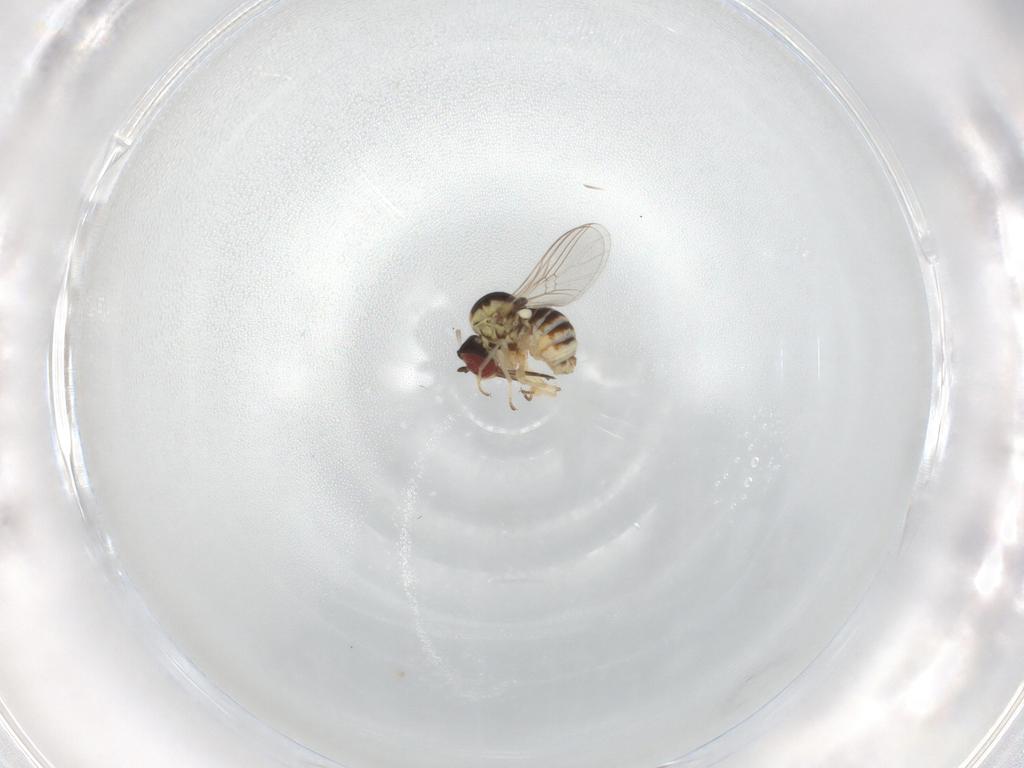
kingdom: Animalia
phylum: Arthropoda
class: Insecta
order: Diptera
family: Bombyliidae
